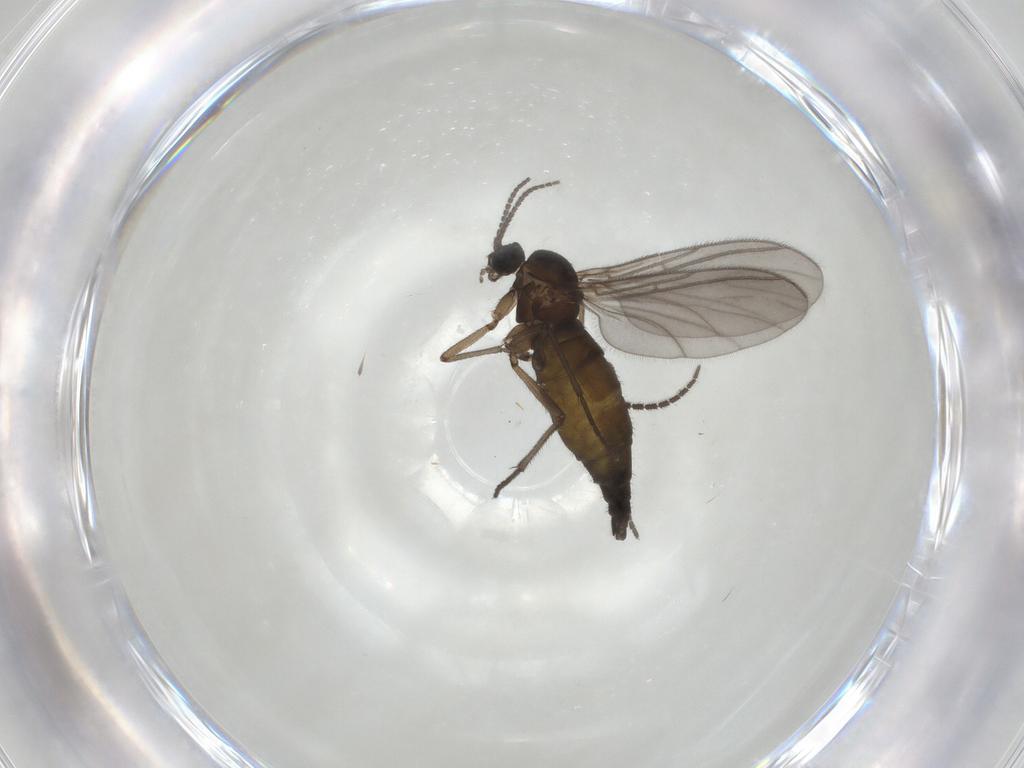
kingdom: Animalia
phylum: Arthropoda
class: Insecta
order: Diptera
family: Sciaridae
